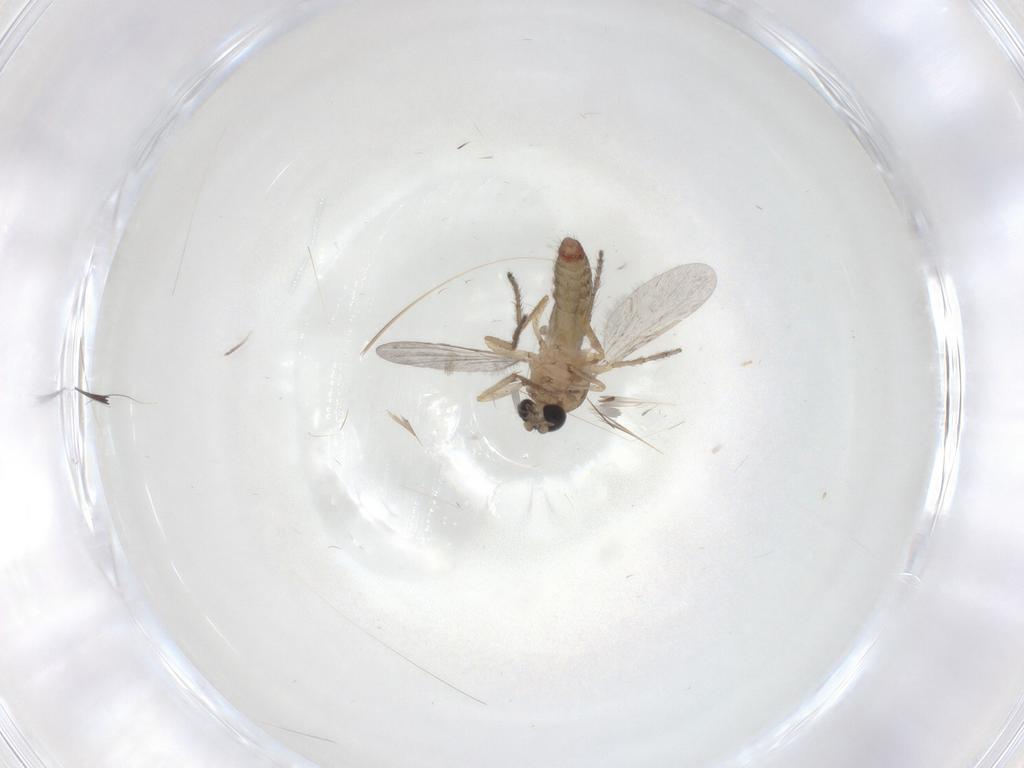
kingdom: Animalia
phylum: Arthropoda
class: Insecta
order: Diptera
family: Ceratopogonidae
